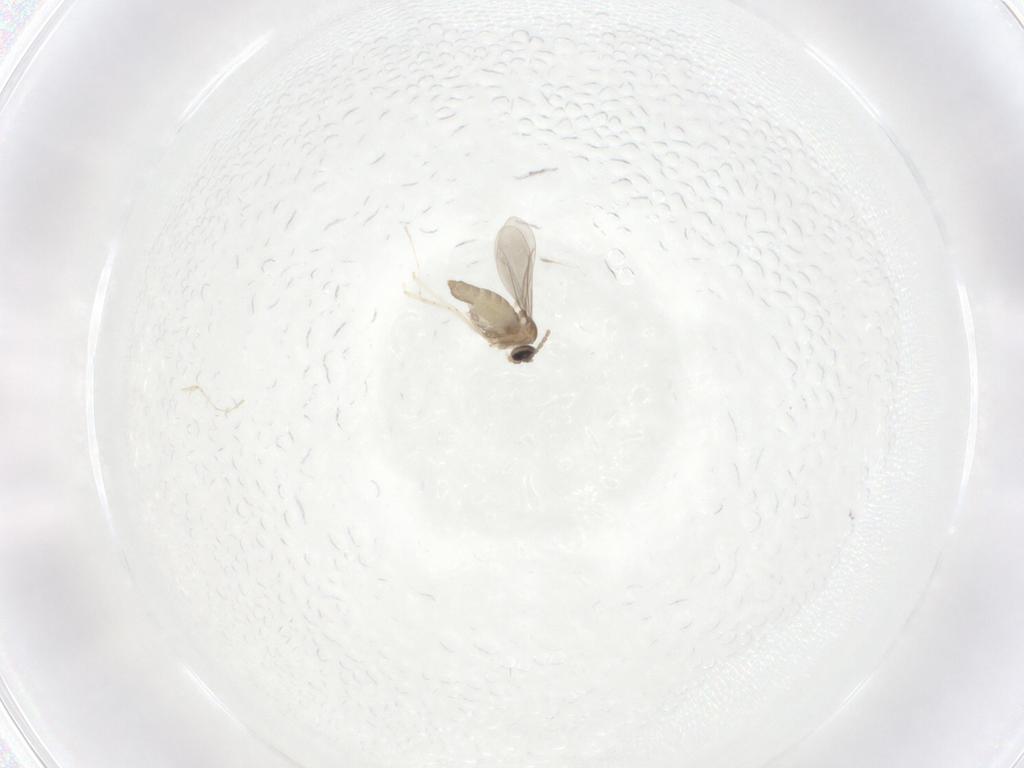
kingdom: Animalia
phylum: Arthropoda
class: Insecta
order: Diptera
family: Cecidomyiidae
